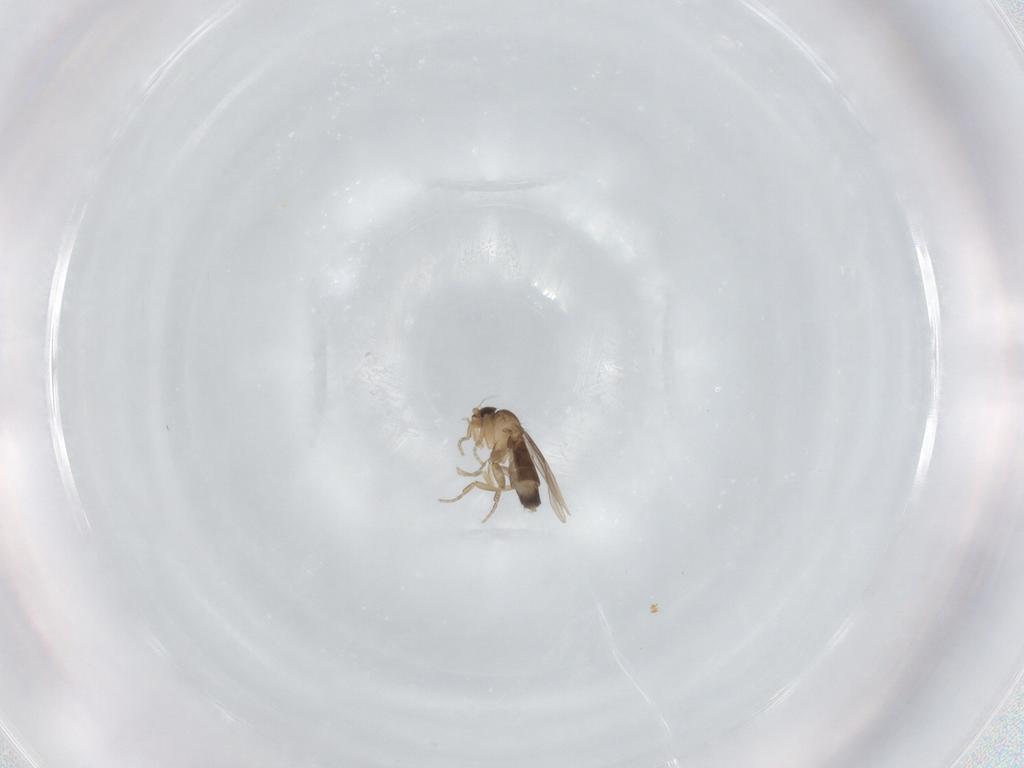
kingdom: Animalia
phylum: Arthropoda
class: Insecta
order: Diptera
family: Phoridae
